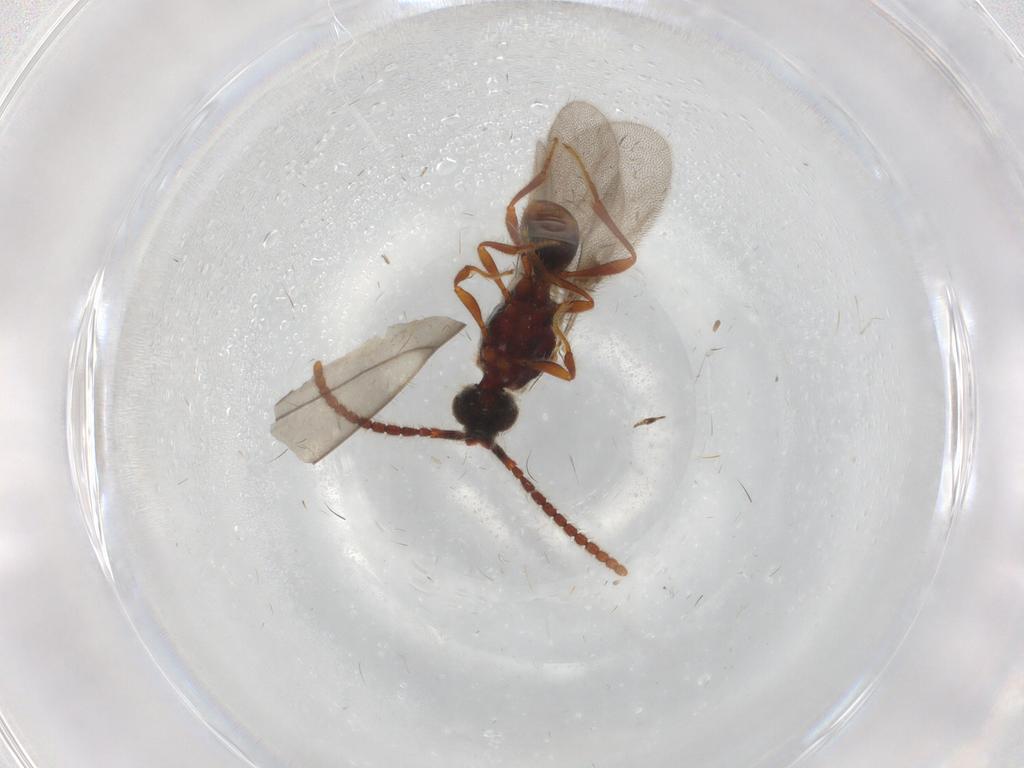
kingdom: Animalia
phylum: Arthropoda
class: Insecta
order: Hymenoptera
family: Diapriidae
